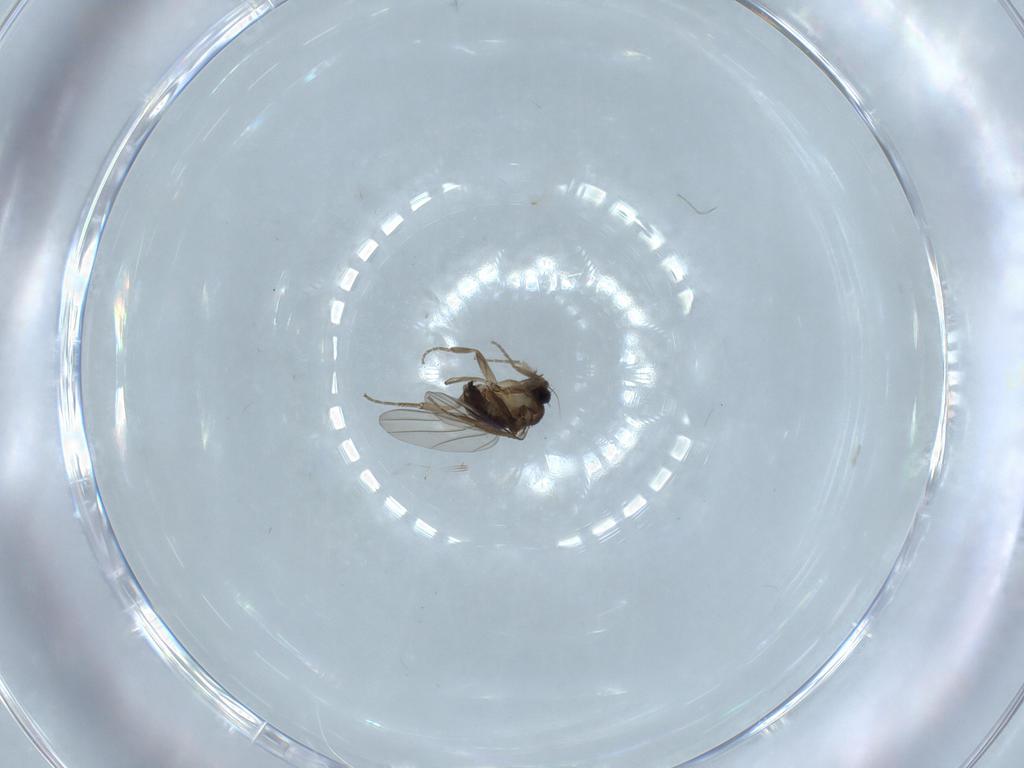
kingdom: Animalia
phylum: Arthropoda
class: Insecta
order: Diptera
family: Phoridae
